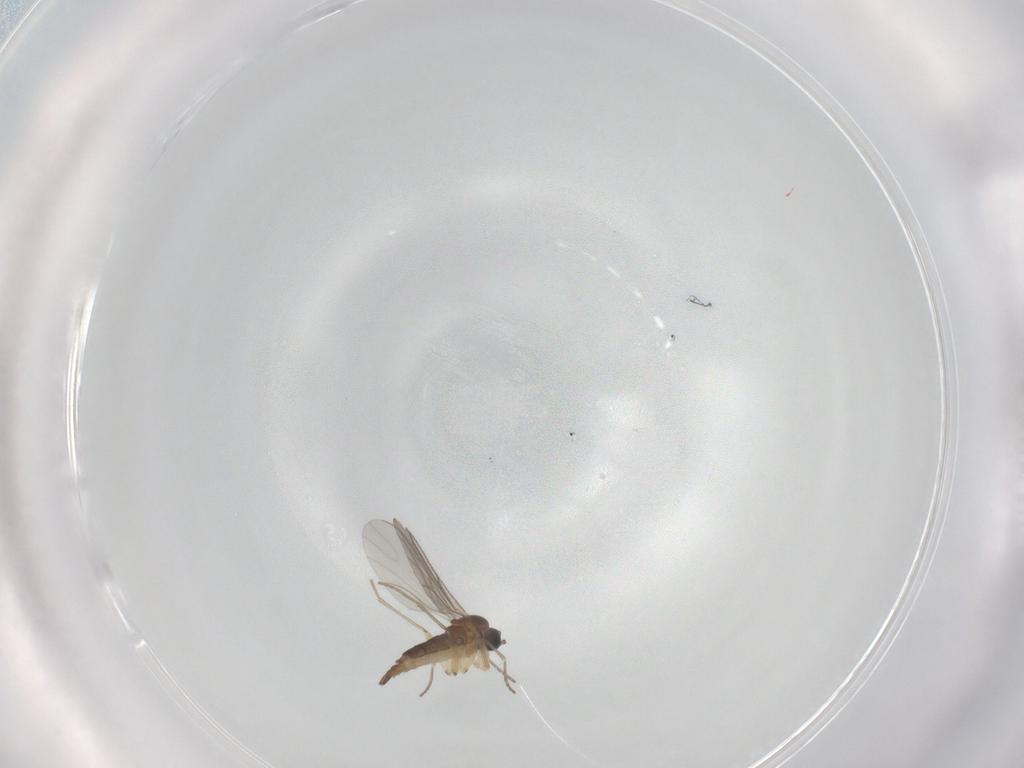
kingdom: Animalia
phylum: Arthropoda
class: Insecta
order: Diptera
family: Sciaridae
